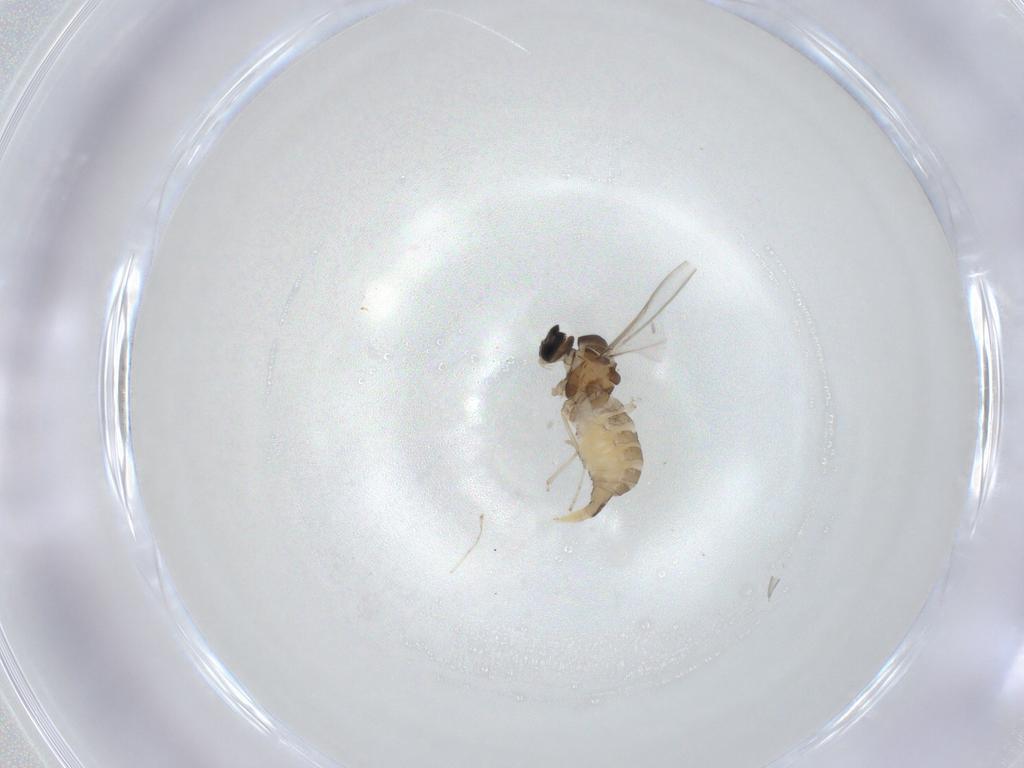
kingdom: Animalia
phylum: Arthropoda
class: Insecta
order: Diptera
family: Cecidomyiidae
